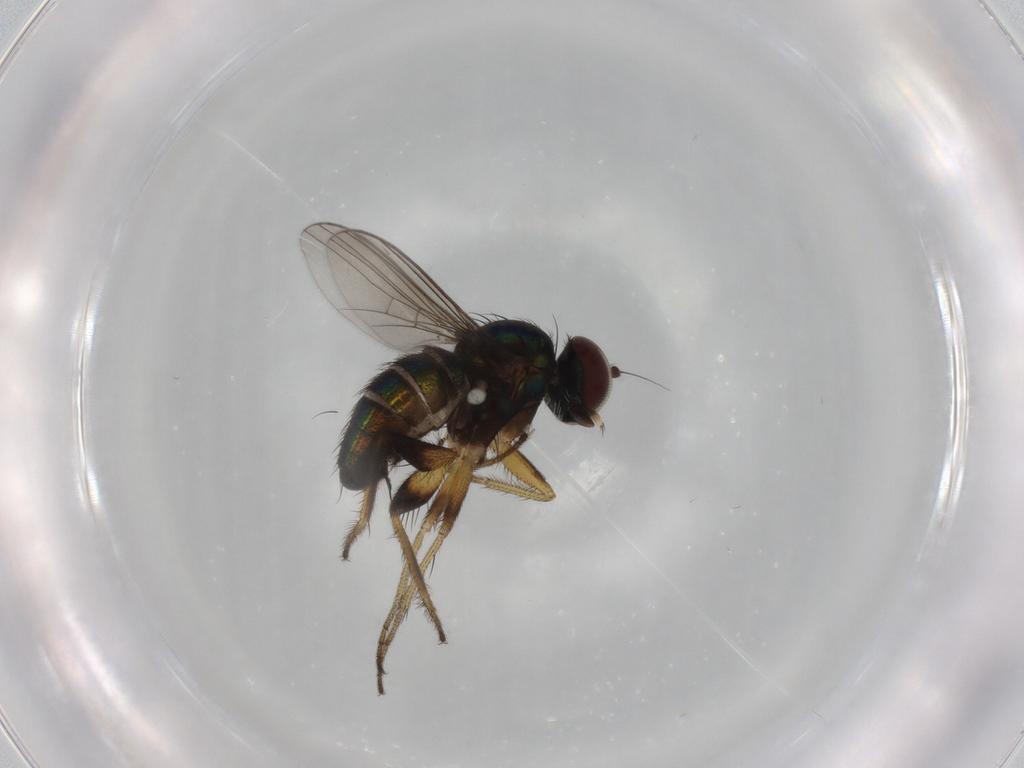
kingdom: Animalia
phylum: Arthropoda
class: Insecta
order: Diptera
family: Dolichopodidae
